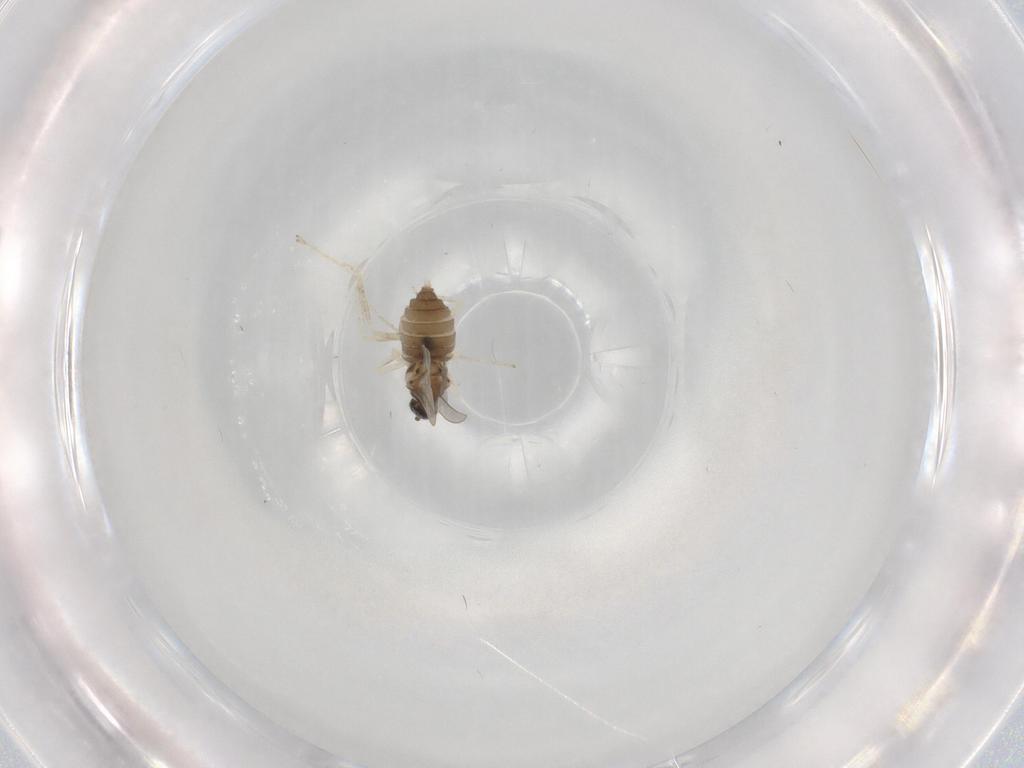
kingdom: Animalia
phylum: Arthropoda
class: Insecta
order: Diptera
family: Cecidomyiidae
